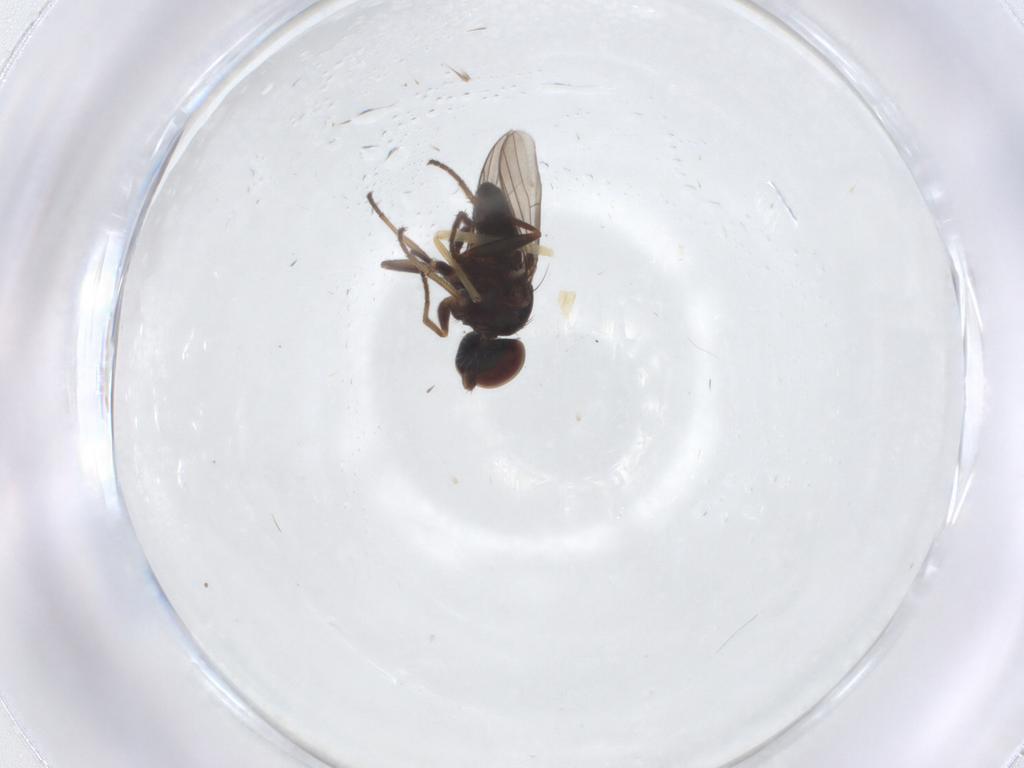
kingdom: Animalia
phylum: Arthropoda
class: Insecta
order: Diptera
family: Dolichopodidae
